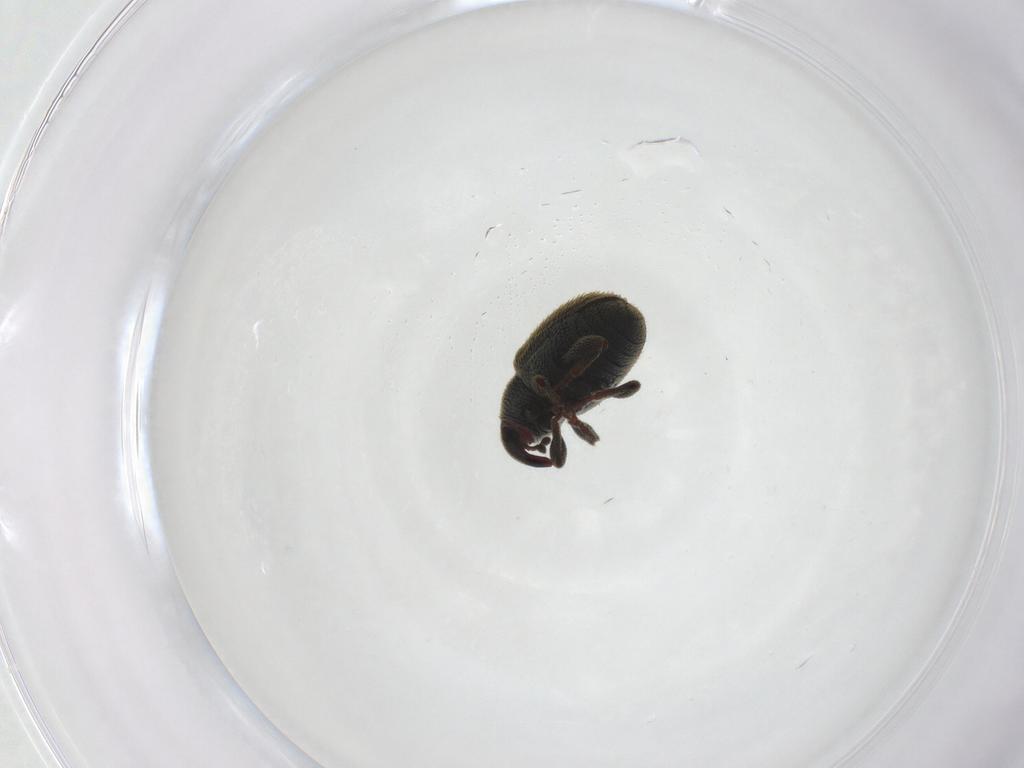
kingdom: Animalia
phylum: Arthropoda
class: Insecta
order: Coleoptera
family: Curculionidae
